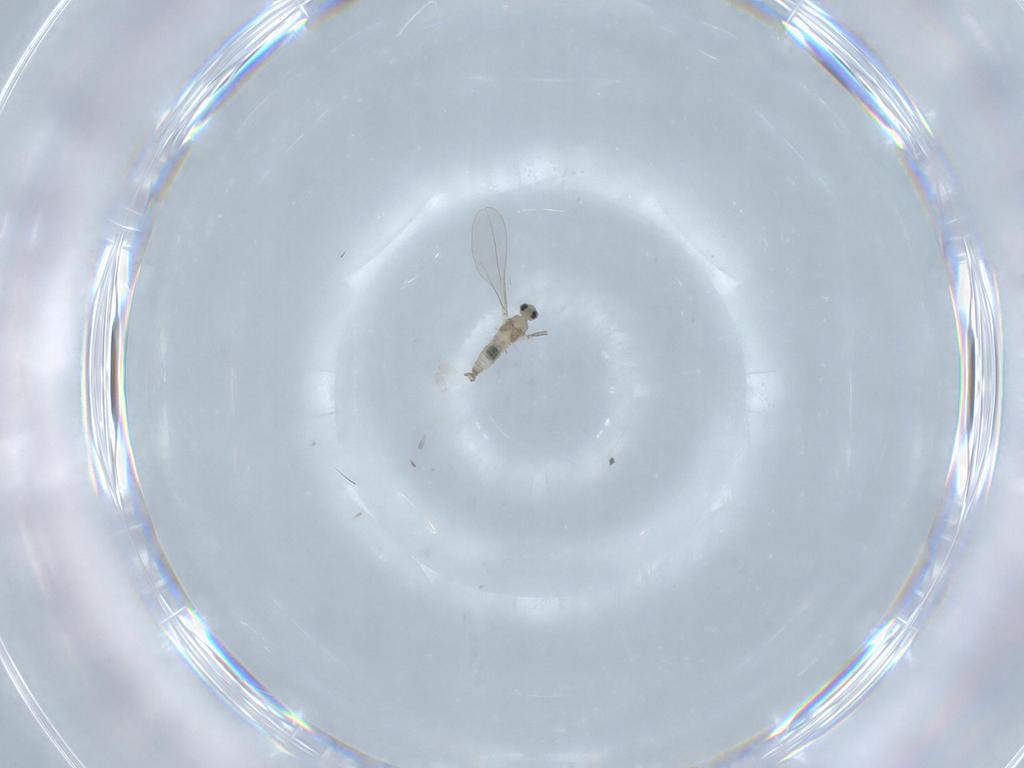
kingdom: Animalia
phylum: Arthropoda
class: Insecta
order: Diptera
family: Cecidomyiidae
